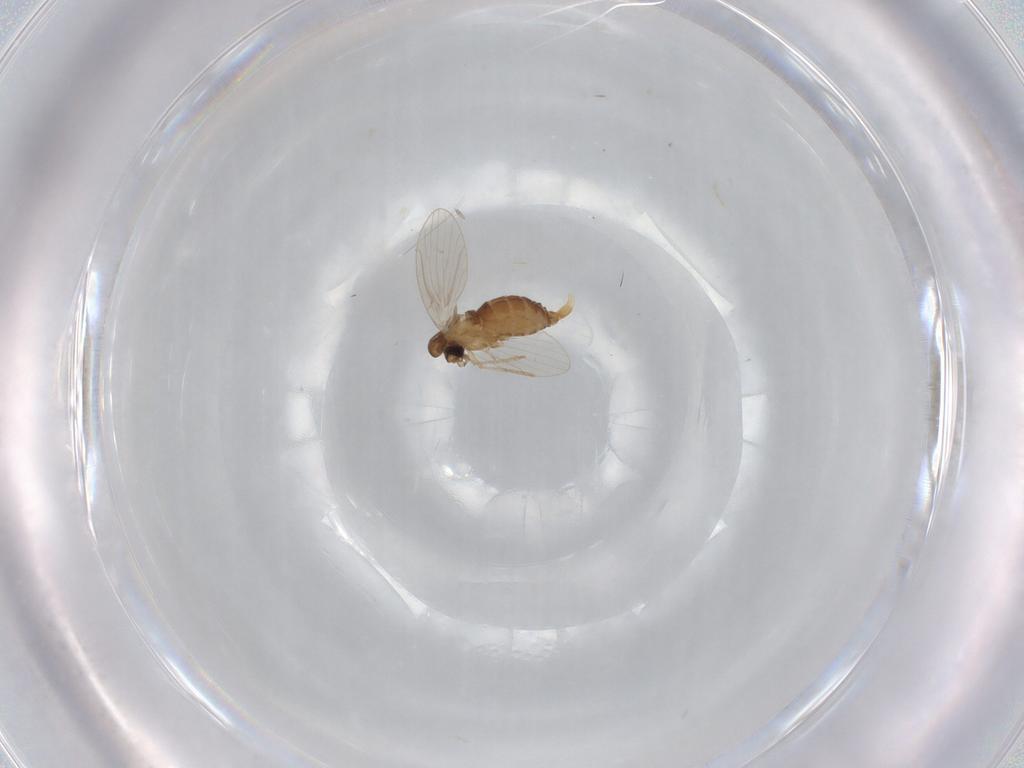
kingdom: Animalia
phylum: Arthropoda
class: Insecta
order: Diptera
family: Psychodidae
